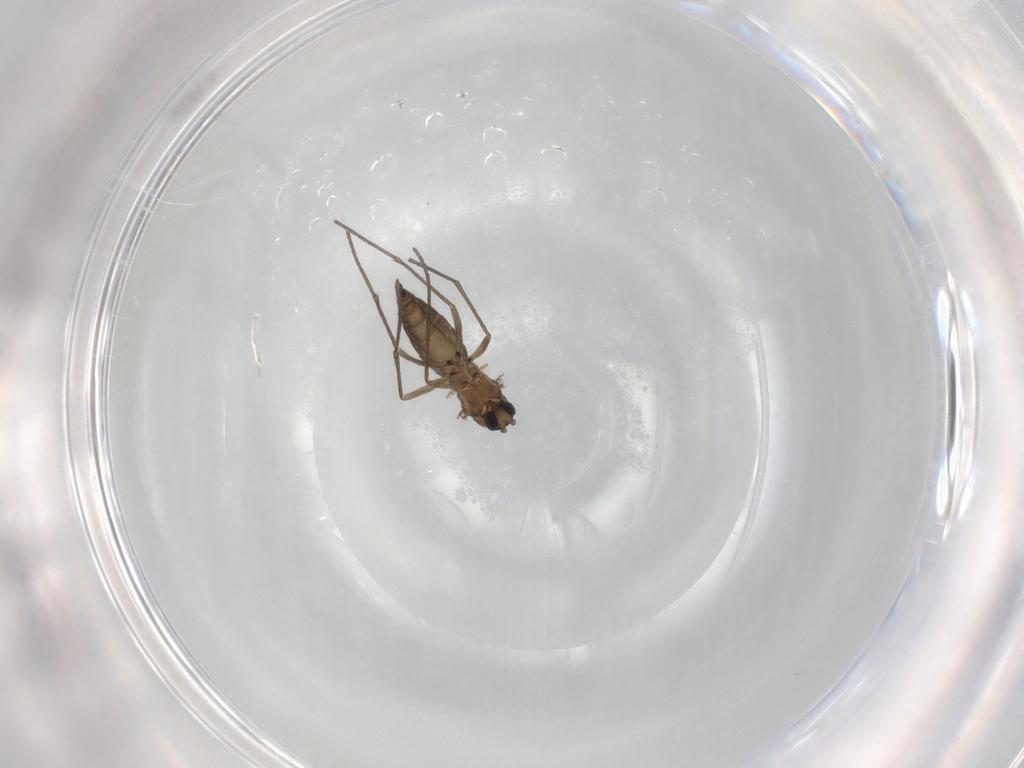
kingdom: Animalia
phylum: Arthropoda
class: Insecta
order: Diptera
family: Sciaridae
